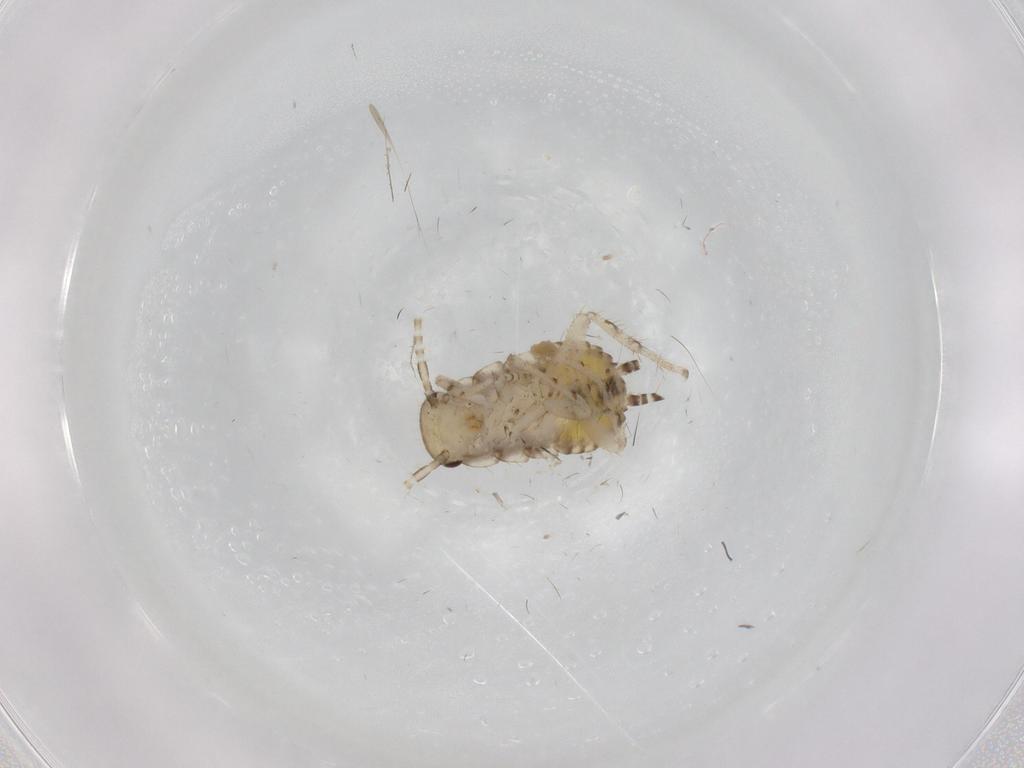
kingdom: Animalia
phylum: Arthropoda
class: Insecta
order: Blattodea
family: Ectobiidae
